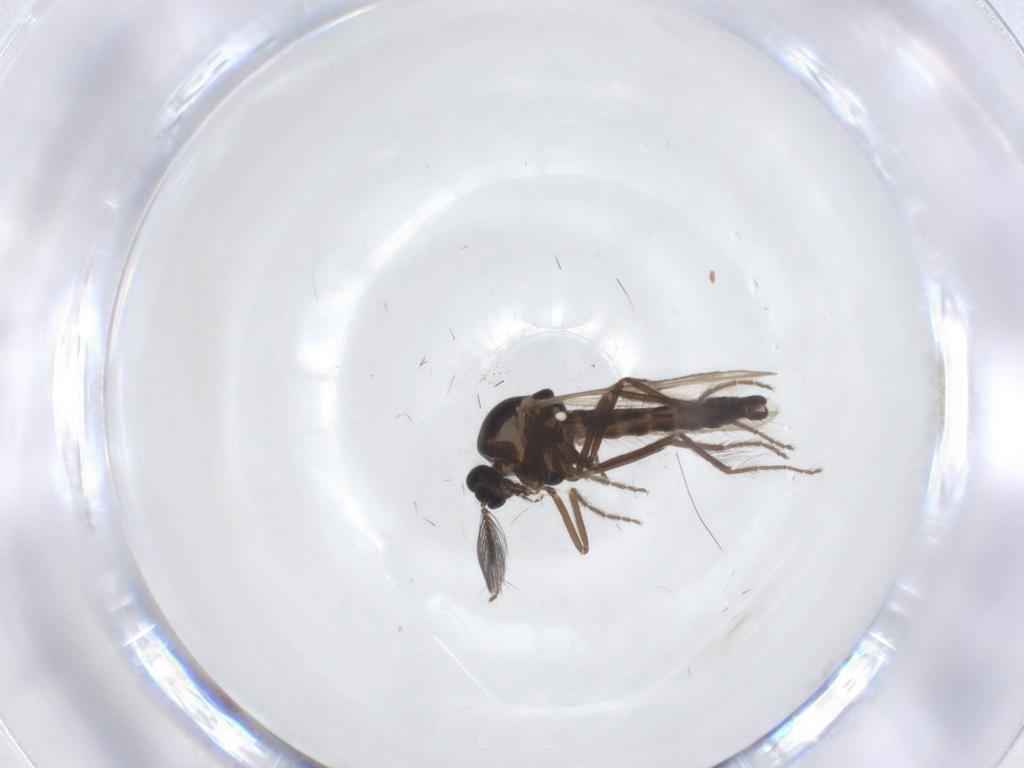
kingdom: Animalia
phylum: Arthropoda
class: Insecta
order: Diptera
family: Ceratopogonidae
